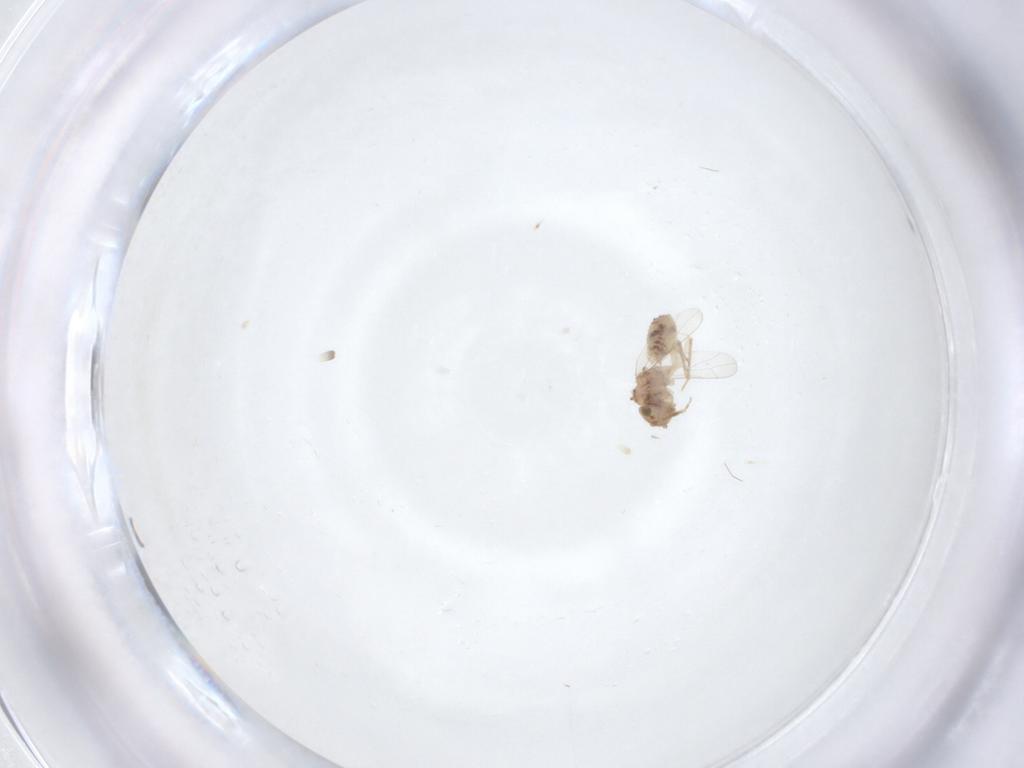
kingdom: Animalia
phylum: Arthropoda
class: Insecta
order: Psocodea
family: Ectopsocidae
